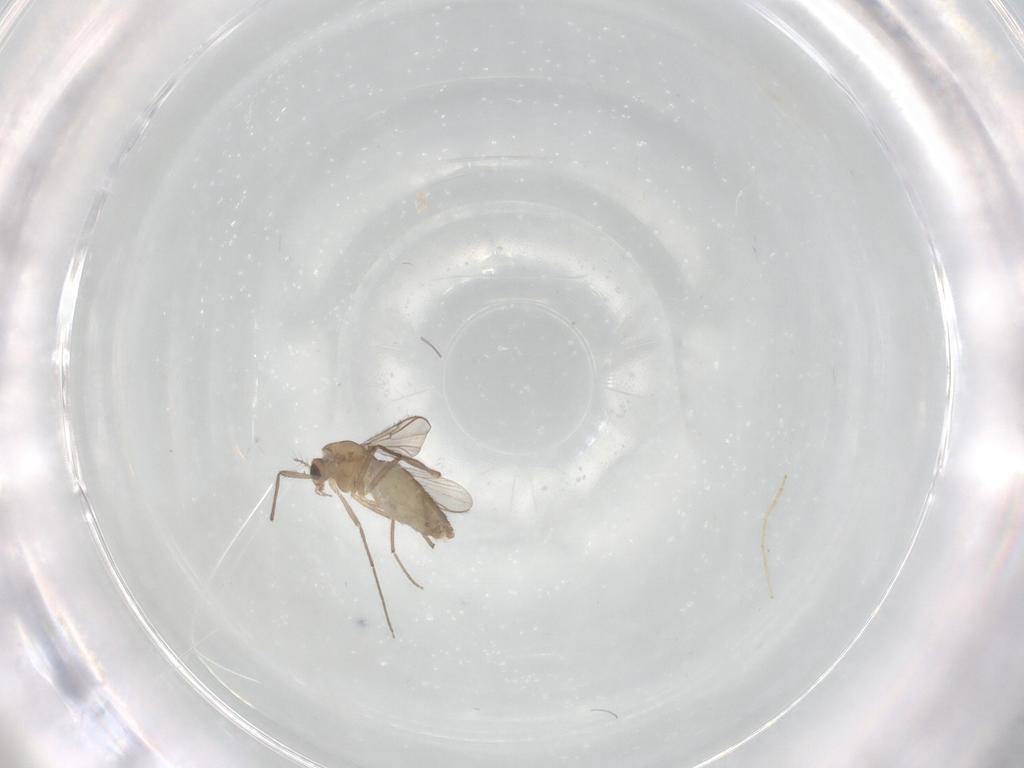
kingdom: Animalia
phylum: Arthropoda
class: Insecta
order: Diptera
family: Chironomidae
